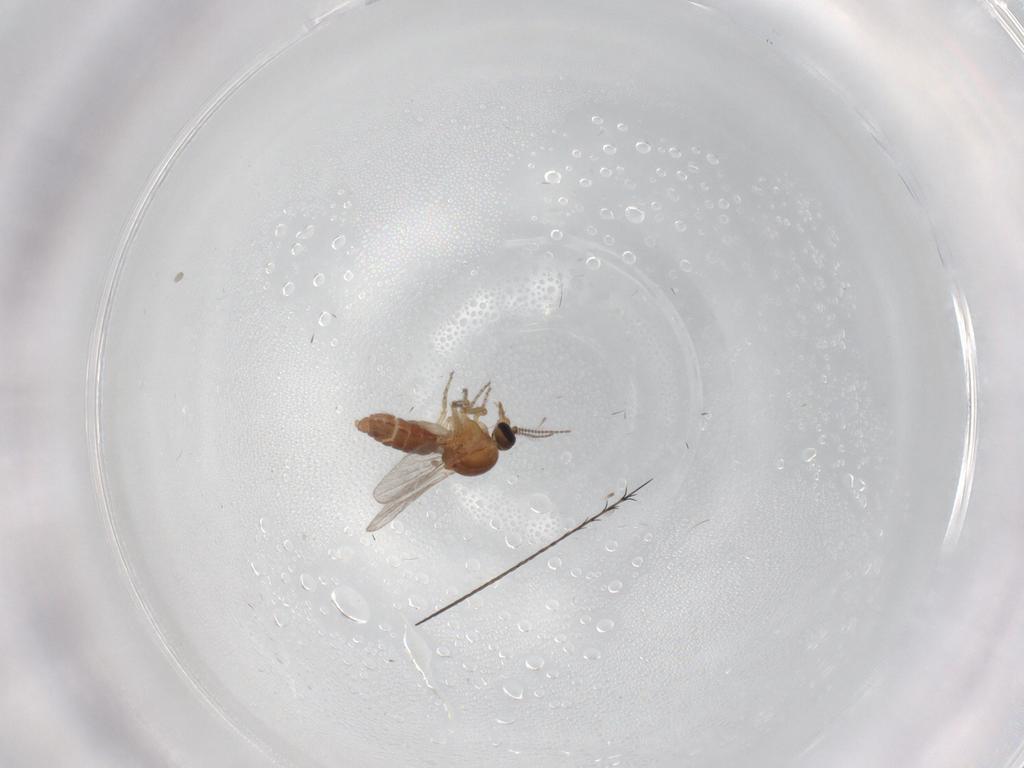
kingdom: Animalia
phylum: Arthropoda
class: Insecta
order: Diptera
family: Ceratopogonidae
